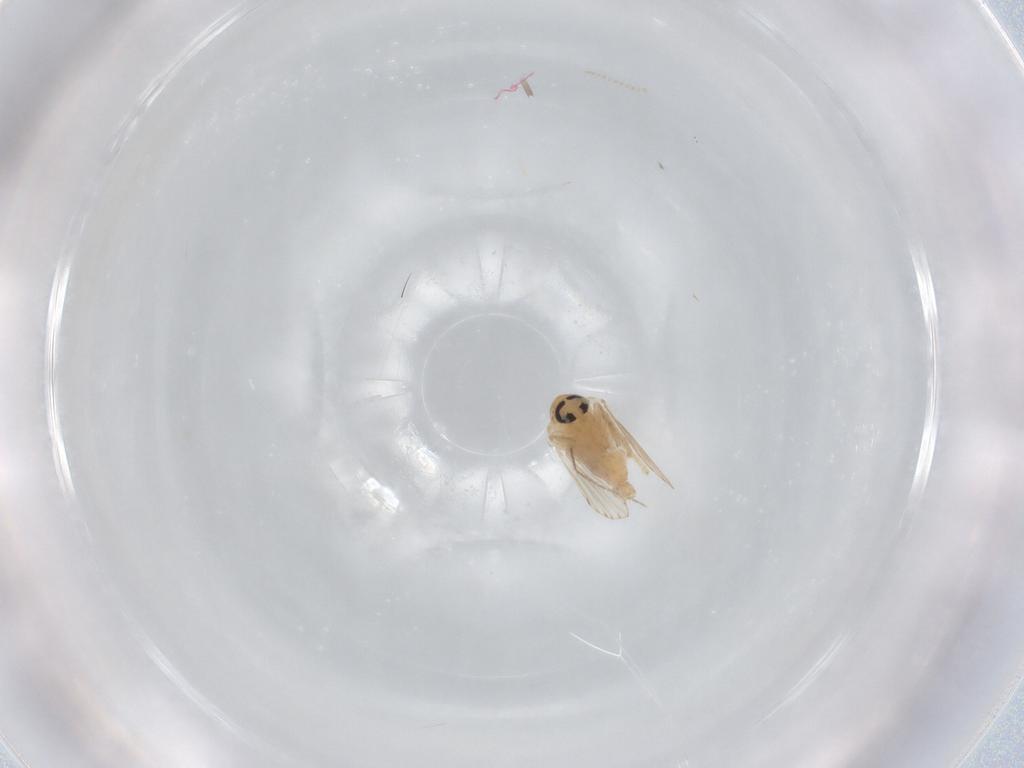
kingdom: Animalia
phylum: Arthropoda
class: Insecta
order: Diptera
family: Psychodidae
